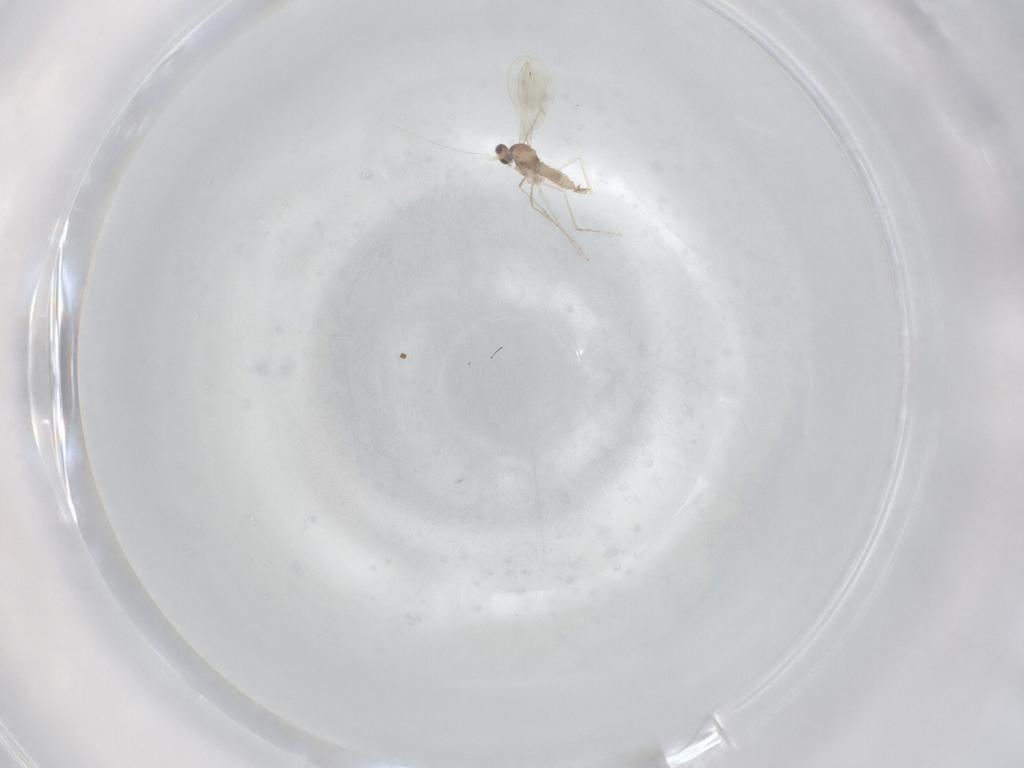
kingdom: Animalia
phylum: Arthropoda
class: Insecta
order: Diptera
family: Cecidomyiidae
